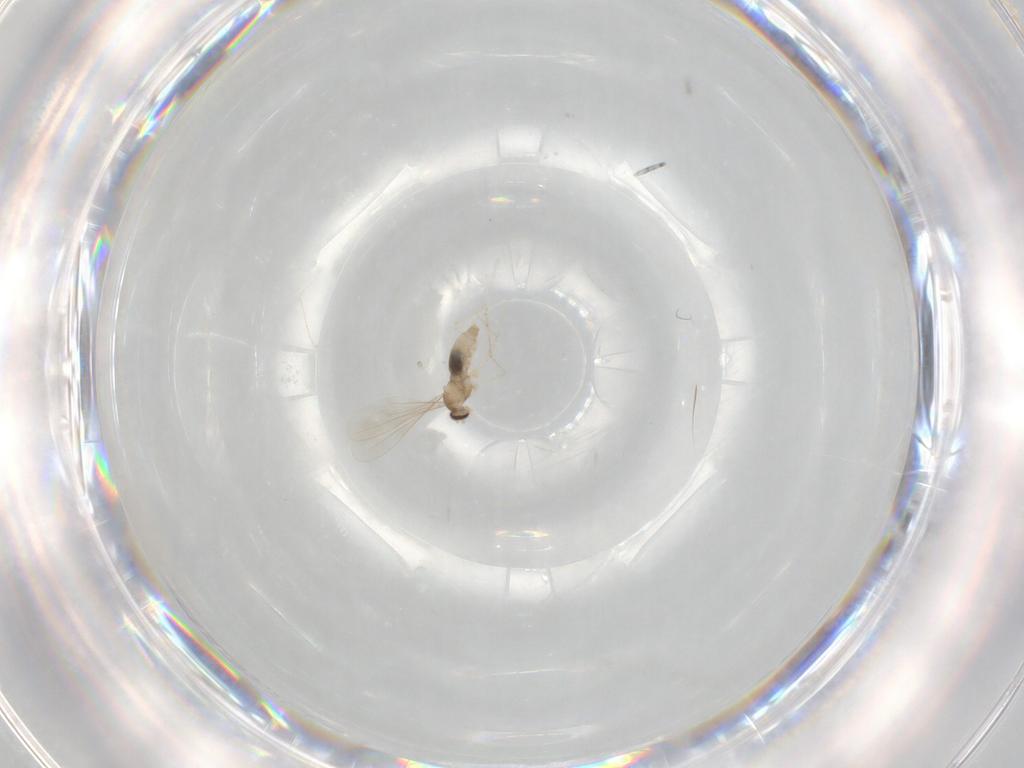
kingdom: Animalia
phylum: Arthropoda
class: Insecta
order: Diptera
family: Cecidomyiidae
